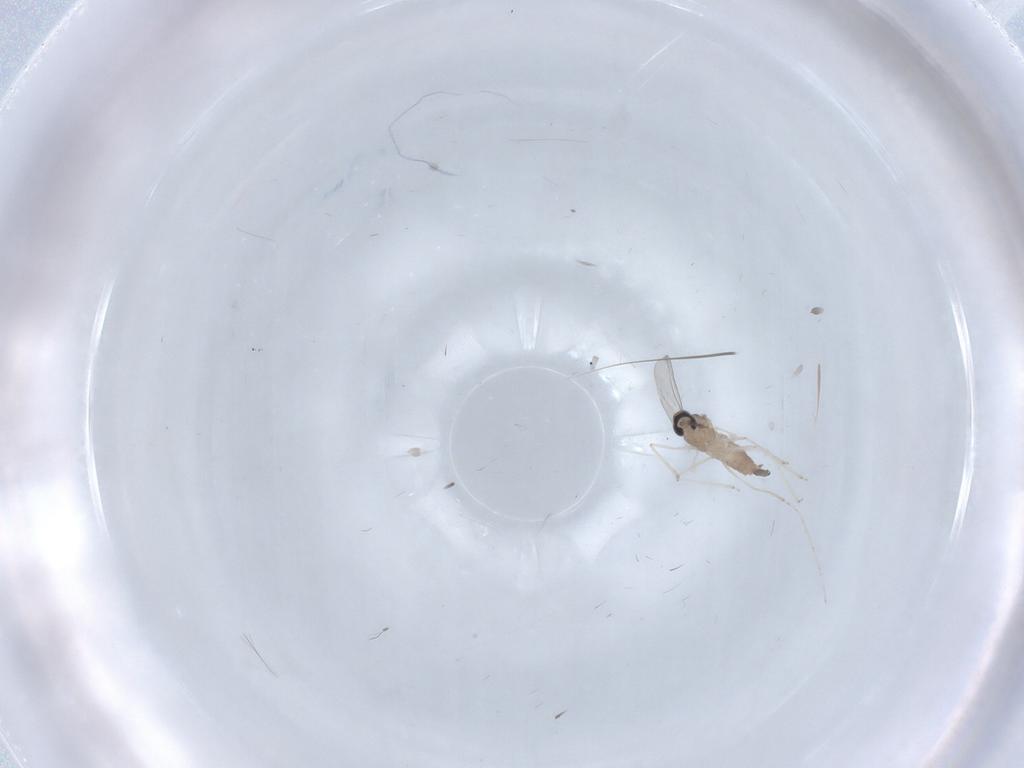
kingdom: Animalia
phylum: Arthropoda
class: Insecta
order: Diptera
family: Cecidomyiidae
